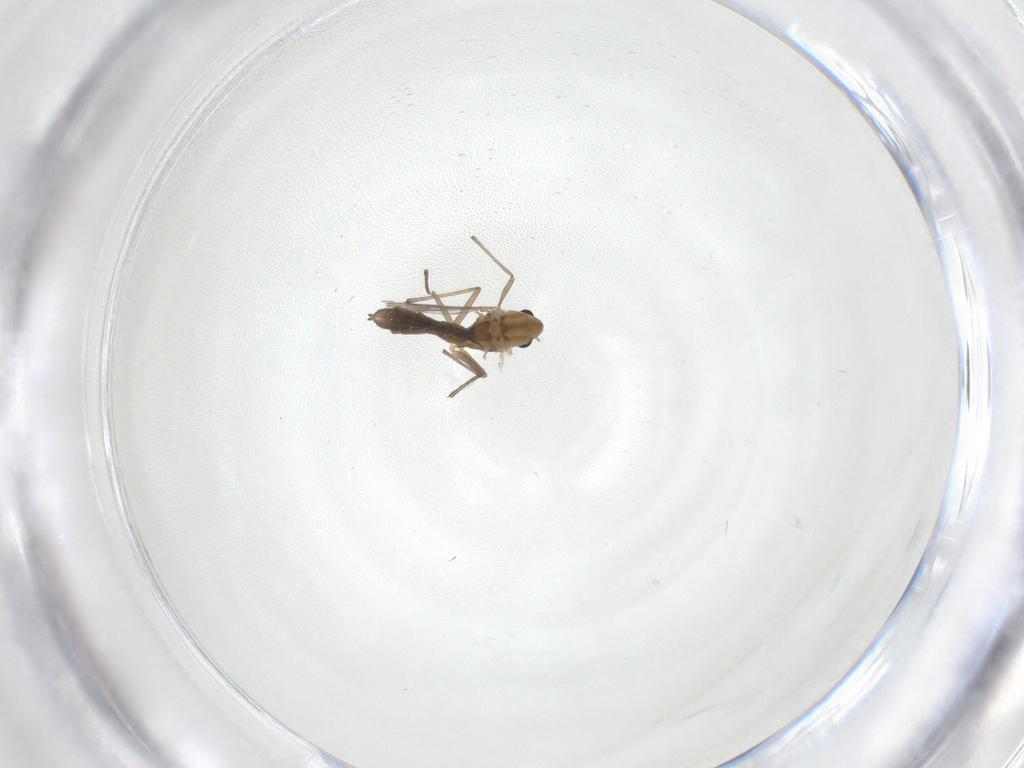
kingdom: Animalia
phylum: Arthropoda
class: Insecta
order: Diptera
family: Chironomidae
